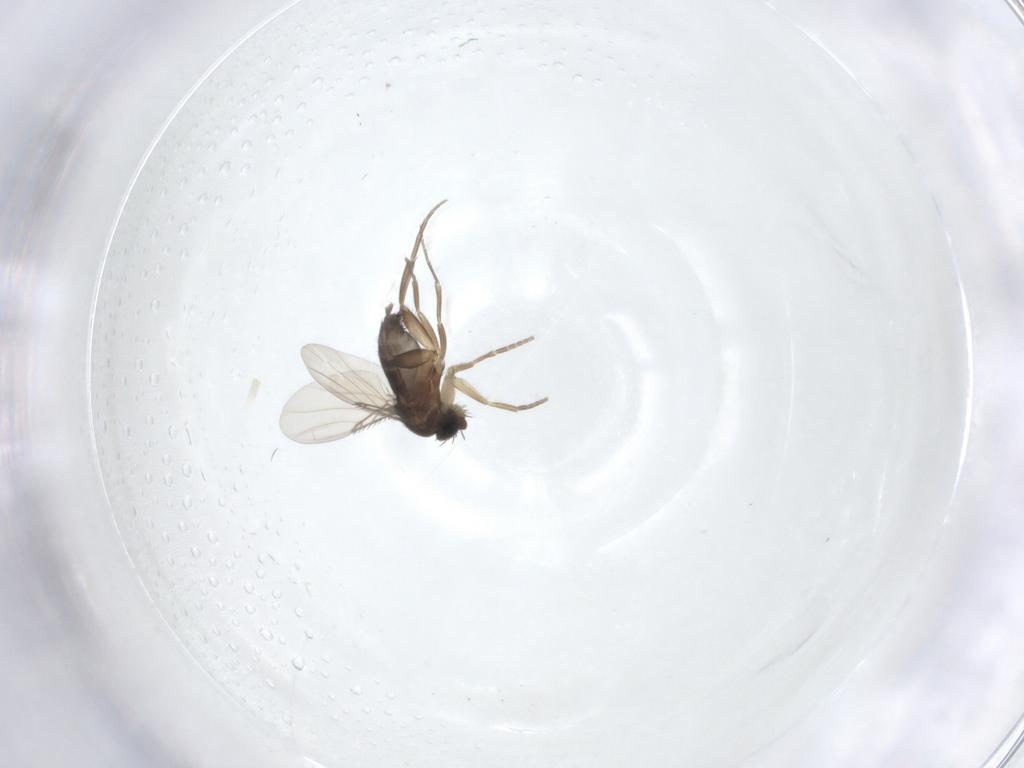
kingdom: Animalia
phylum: Arthropoda
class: Insecta
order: Diptera
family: Phoridae
